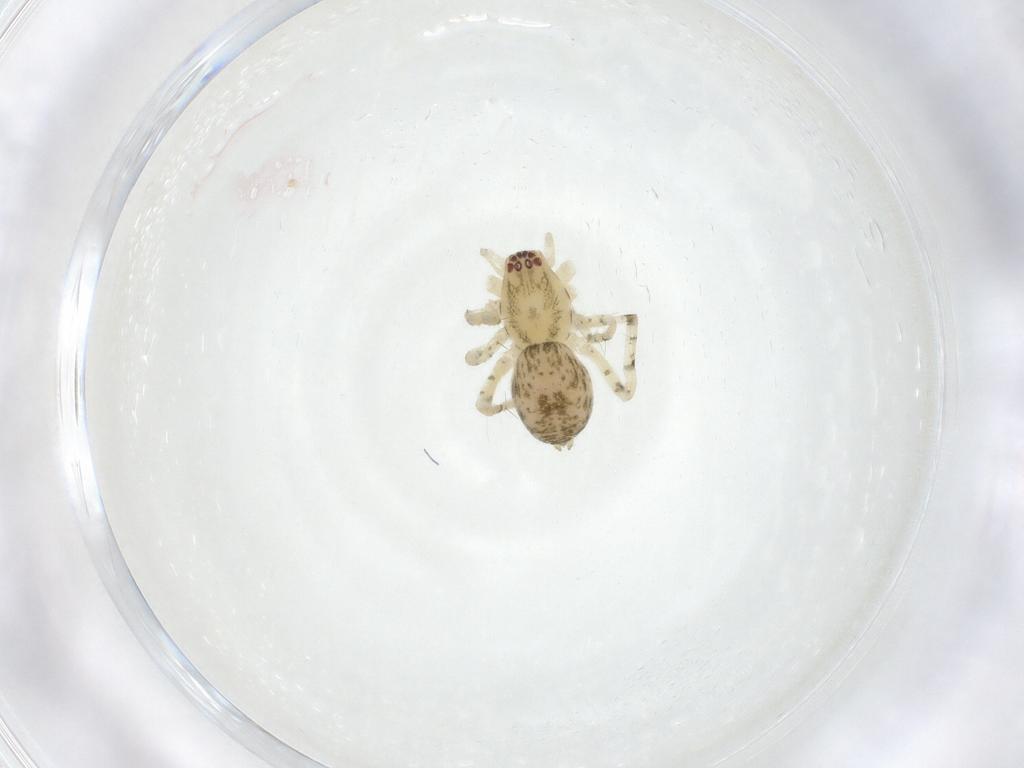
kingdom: Animalia
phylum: Arthropoda
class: Arachnida
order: Araneae
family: Anyphaenidae
